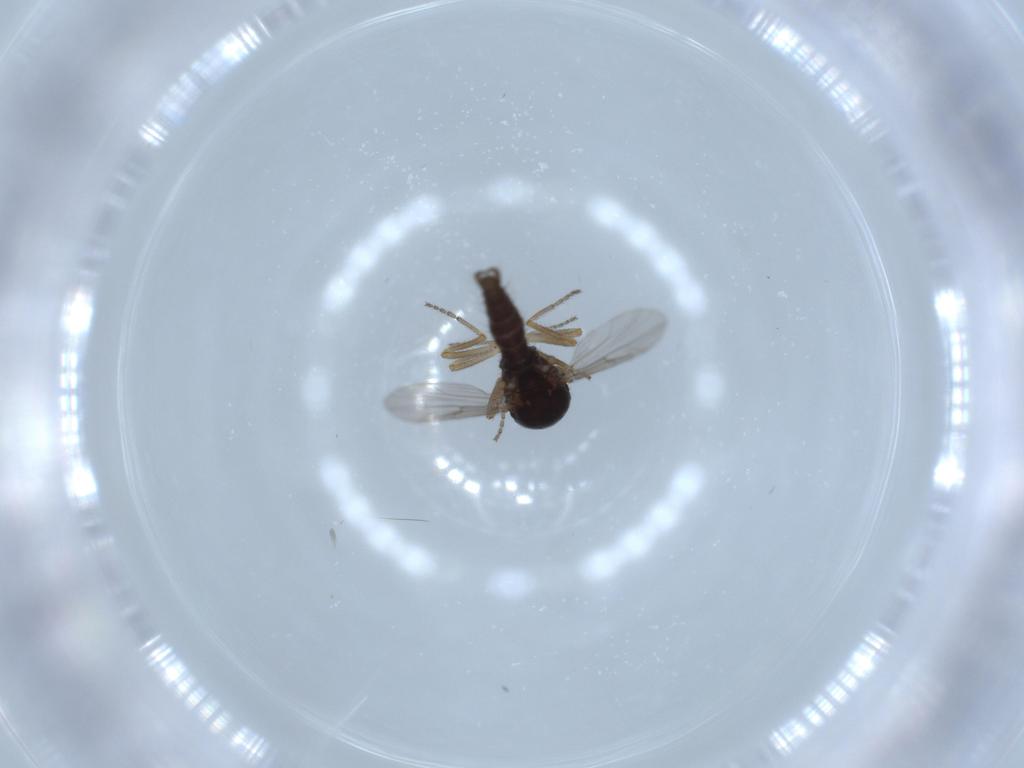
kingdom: Animalia
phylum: Arthropoda
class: Insecta
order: Diptera
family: Ceratopogonidae
